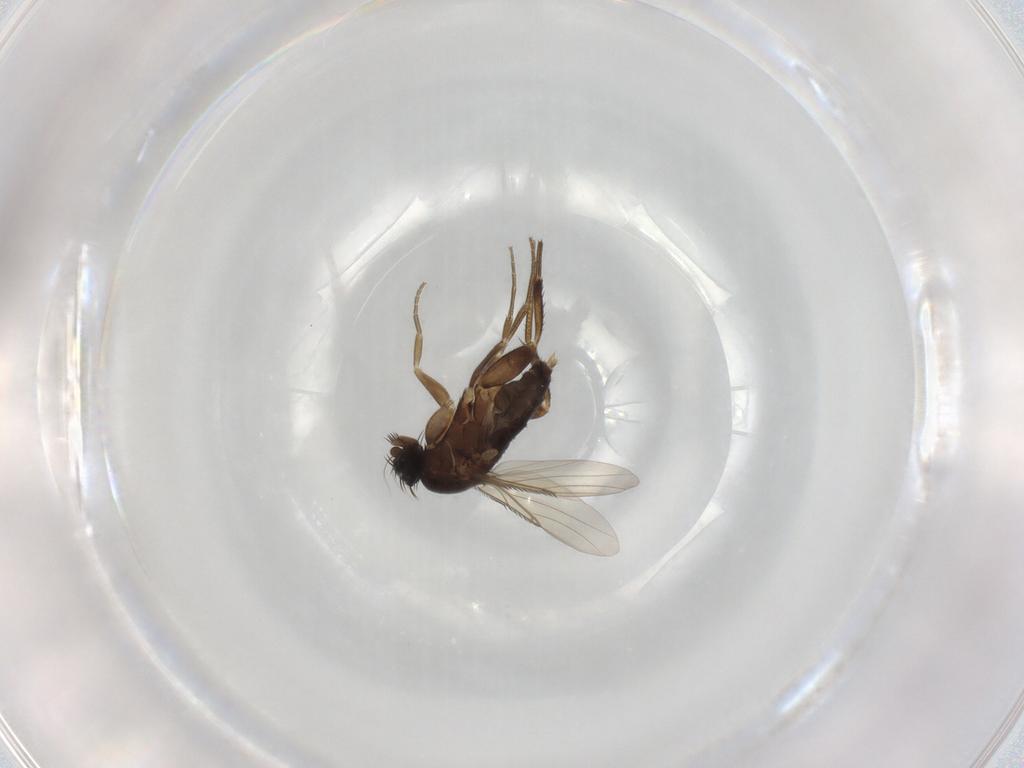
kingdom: Animalia
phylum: Arthropoda
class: Insecta
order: Diptera
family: Phoridae
